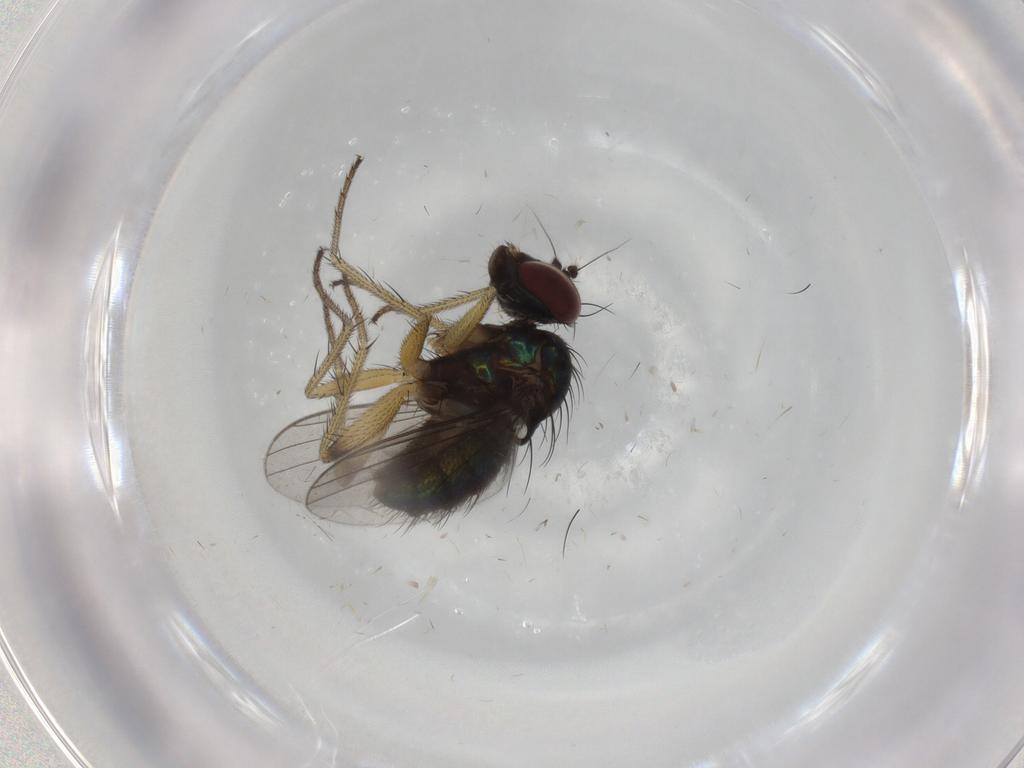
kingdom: Animalia
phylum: Arthropoda
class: Insecta
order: Diptera
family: Dolichopodidae
